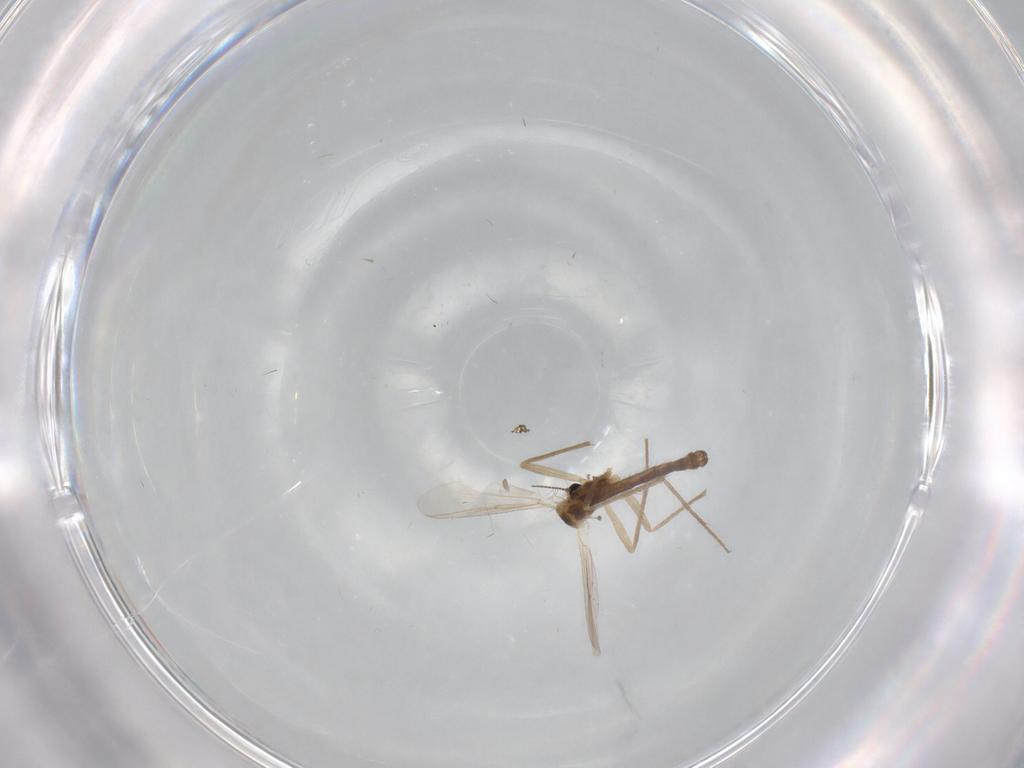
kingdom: Animalia
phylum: Arthropoda
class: Insecta
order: Diptera
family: Chironomidae
